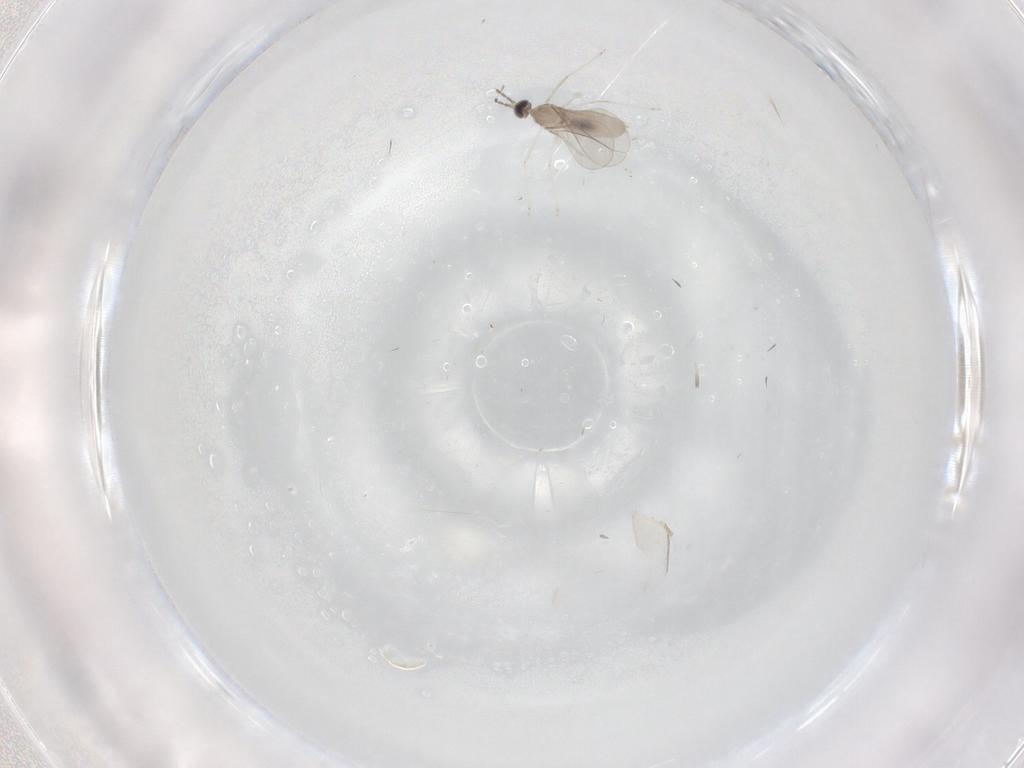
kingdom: Animalia
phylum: Arthropoda
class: Insecta
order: Diptera
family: Cecidomyiidae
